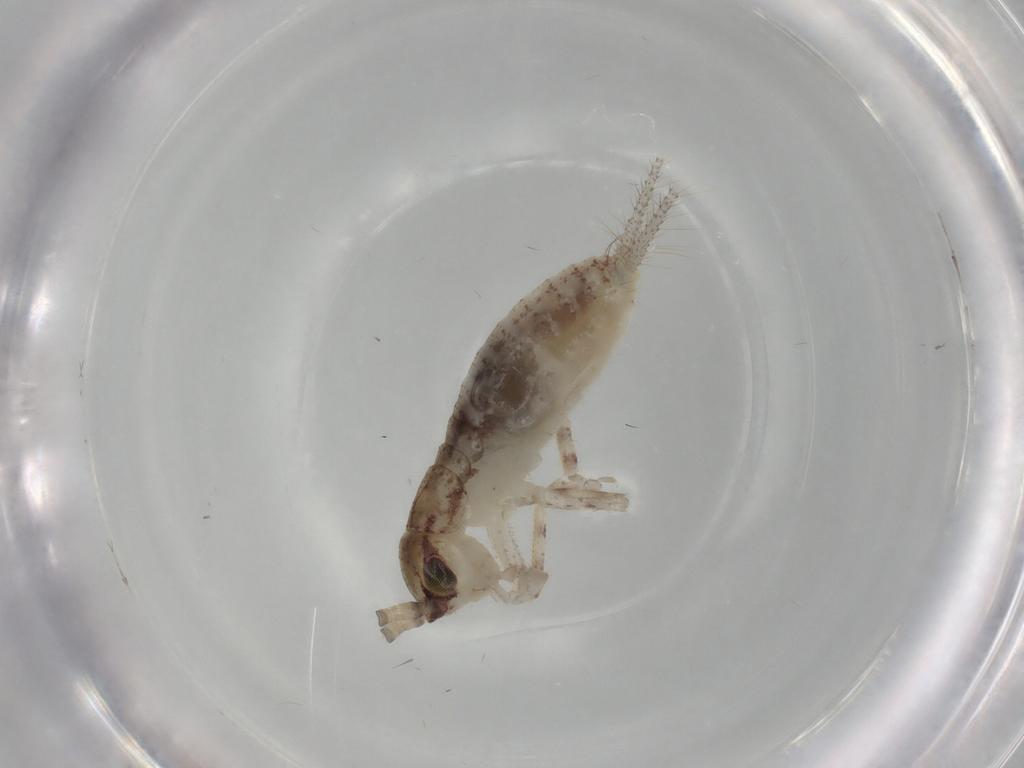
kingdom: Animalia
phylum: Arthropoda
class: Insecta
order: Orthoptera
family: Gryllidae
